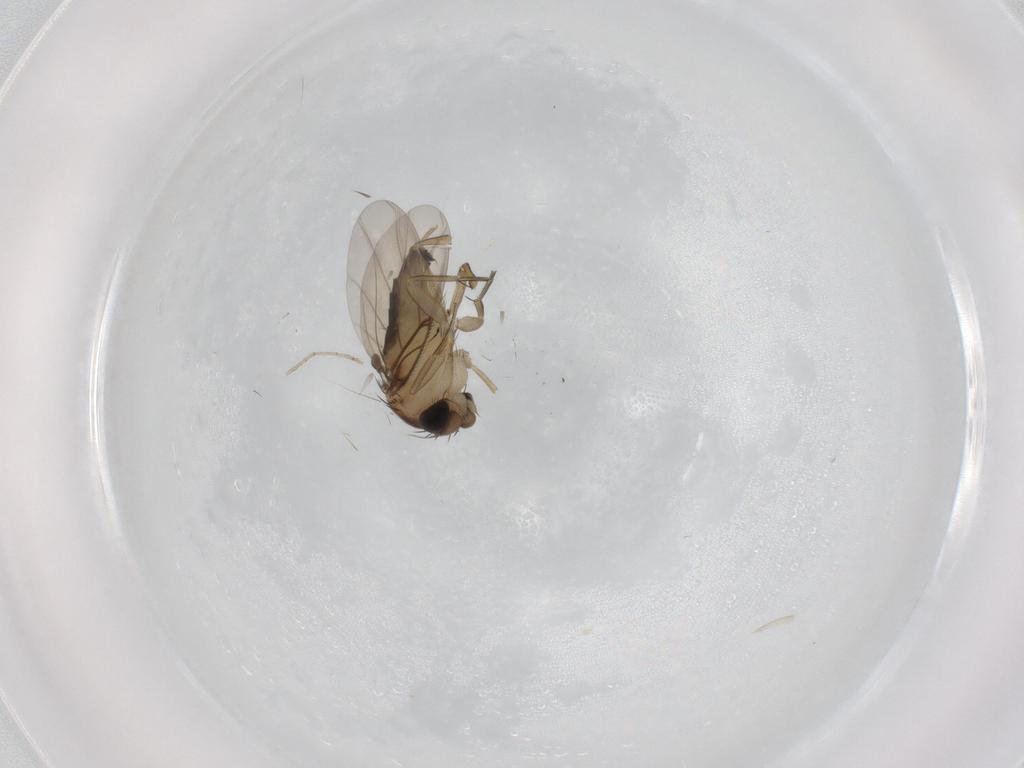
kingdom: Animalia
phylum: Arthropoda
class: Insecta
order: Diptera
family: Phoridae
